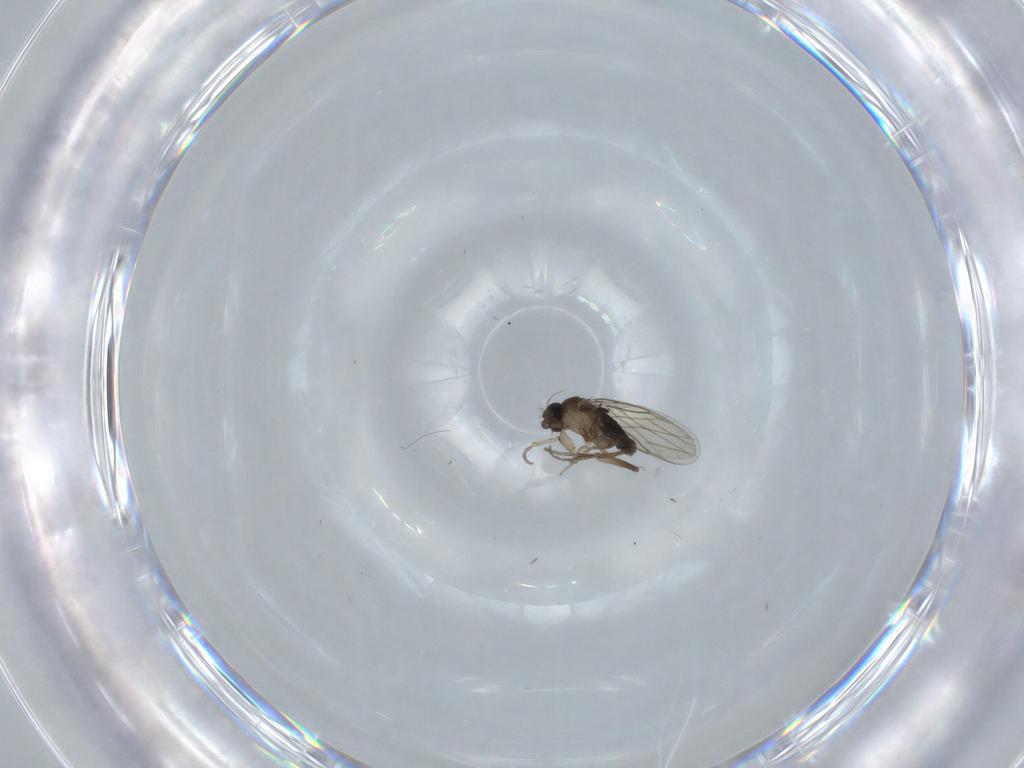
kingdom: Animalia
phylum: Arthropoda
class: Insecta
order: Diptera
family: Phoridae
